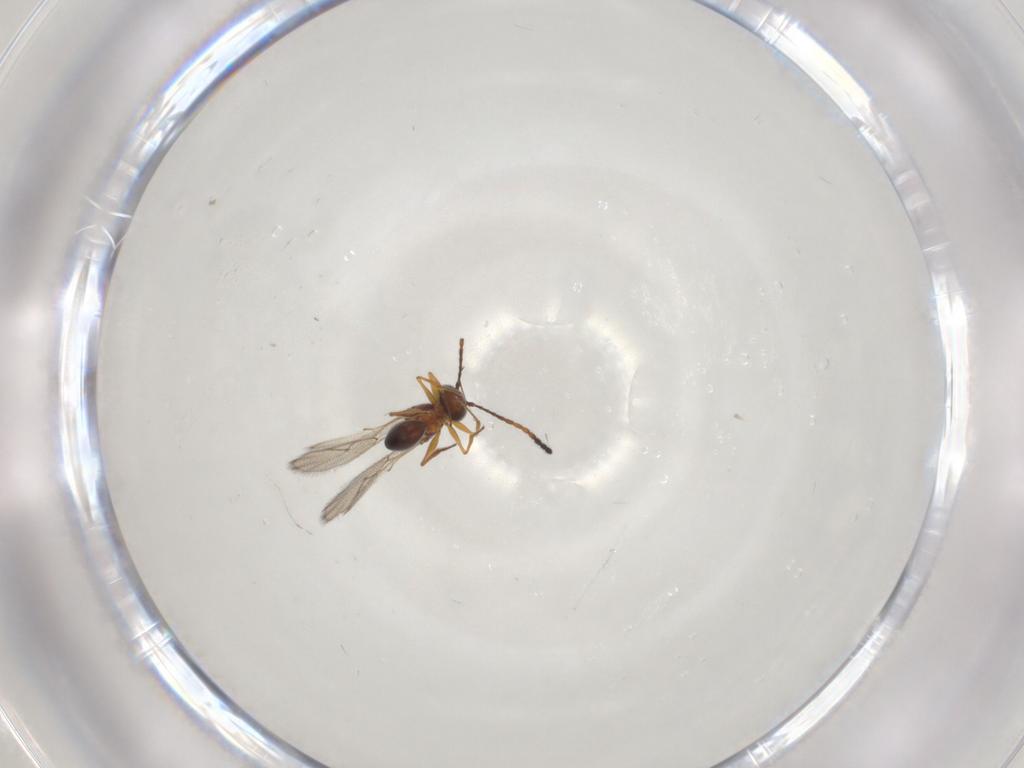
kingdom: Animalia
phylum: Arthropoda
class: Insecta
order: Hymenoptera
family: Figitidae
